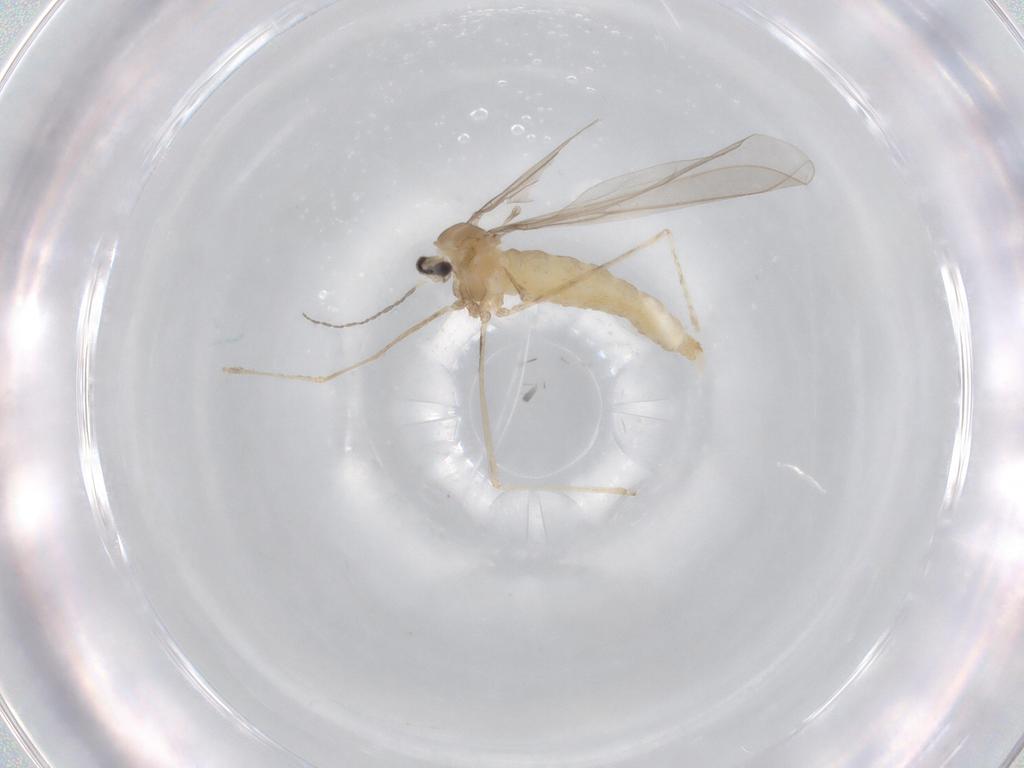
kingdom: Animalia
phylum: Arthropoda
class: Insecta
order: Diptera
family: Cecidomyiidae
